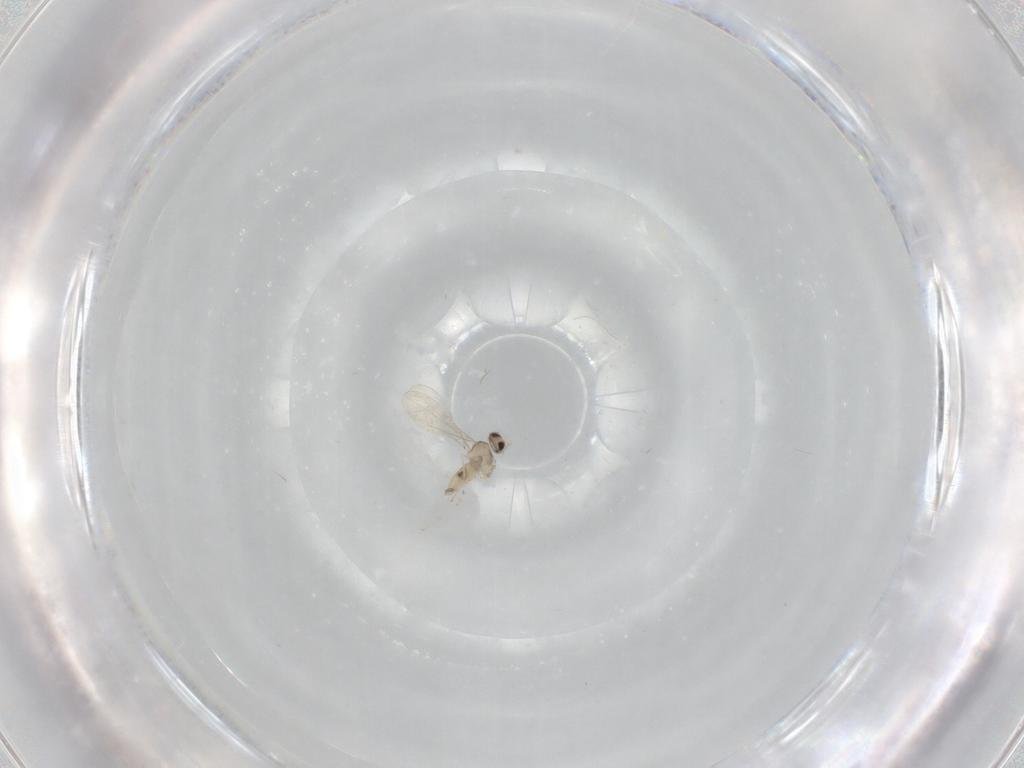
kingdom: Animalia
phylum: Arthropoda
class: Insecta
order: Diptera
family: Cecidomyiidae
